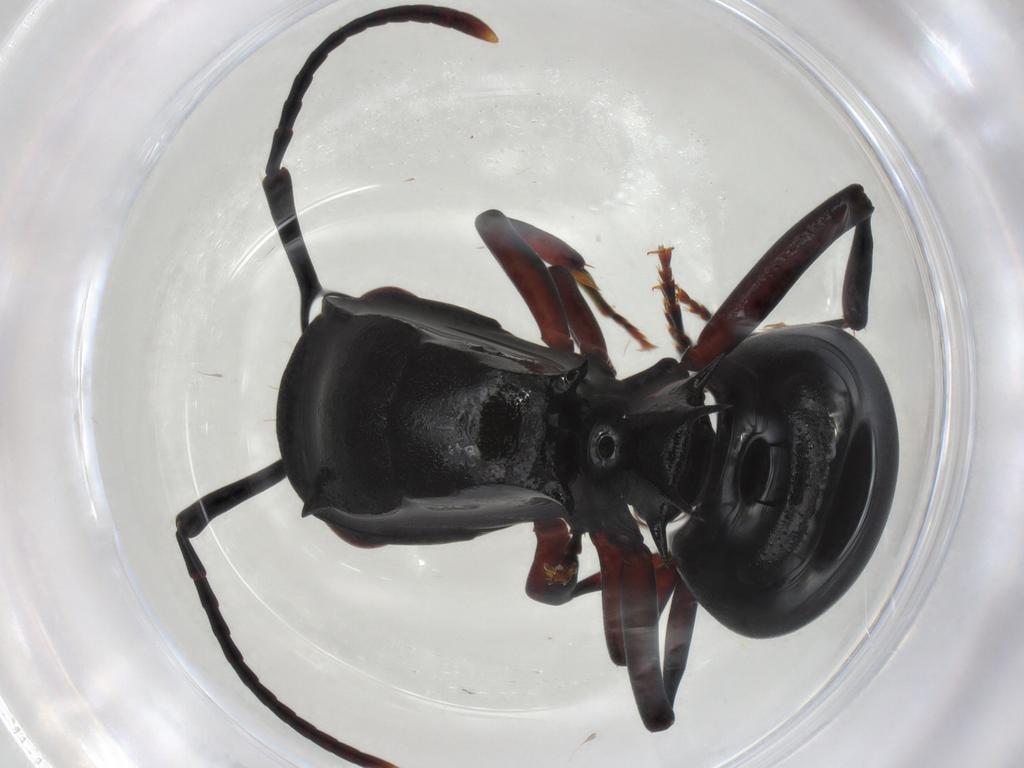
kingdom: Animalia
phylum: Arthropoda
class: Insecta
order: Hymenoptera
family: Formicidae
